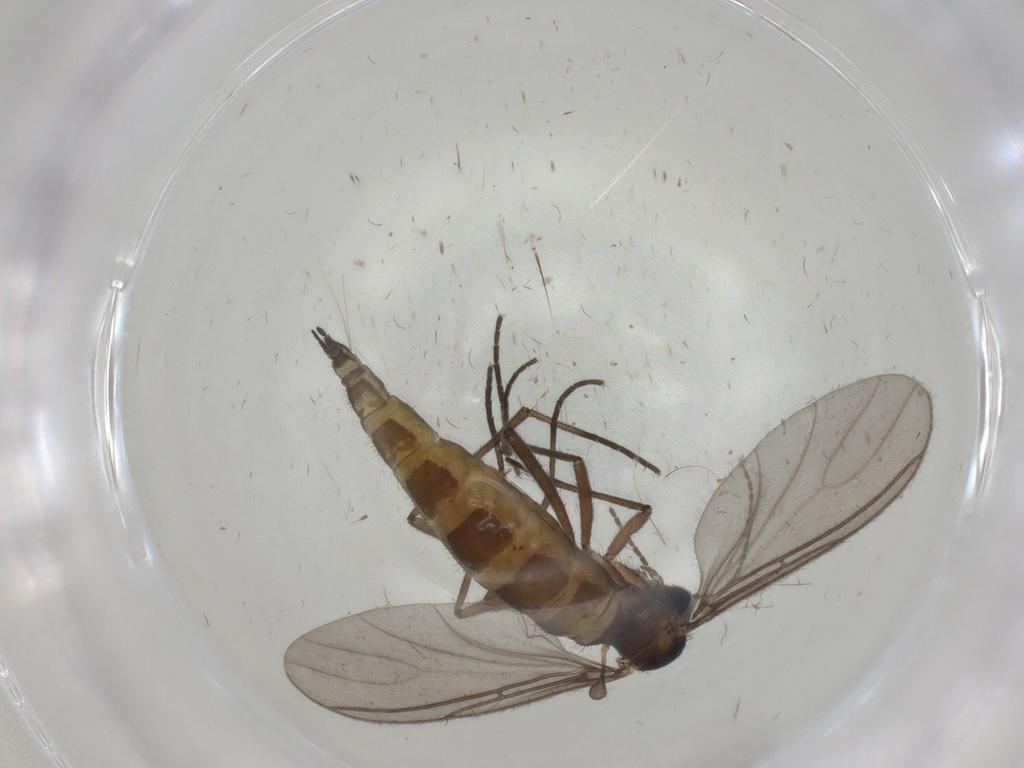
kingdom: Animalia
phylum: Arthropoda
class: Insecta
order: Diptera
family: Sciaridae
